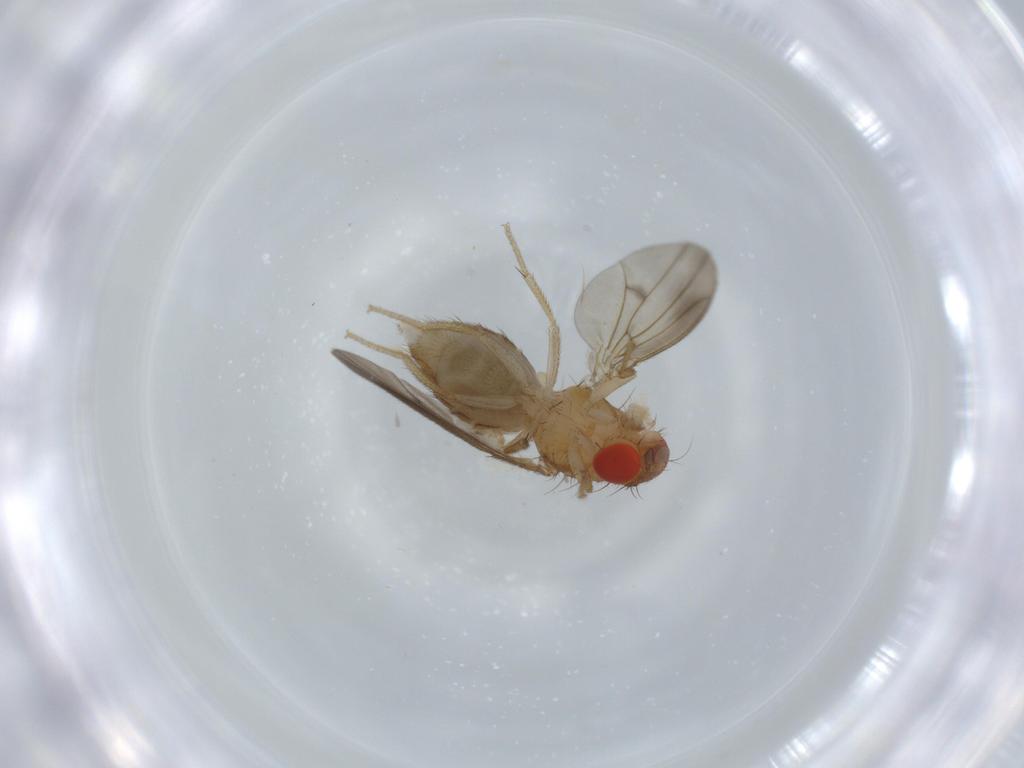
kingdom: Animalia
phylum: Arthropoda
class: Insecta
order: Diptera
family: Drosophilidae
